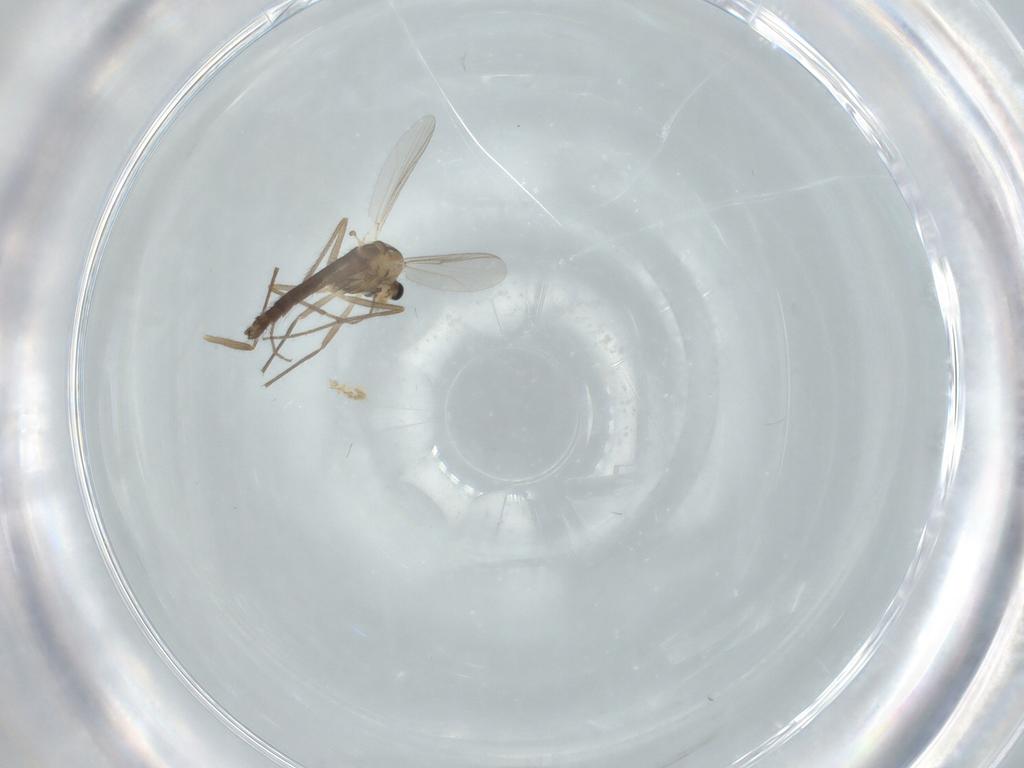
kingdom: Animalia
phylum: Arthropoda
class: Insecta
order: Diptera
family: Chironomidae
